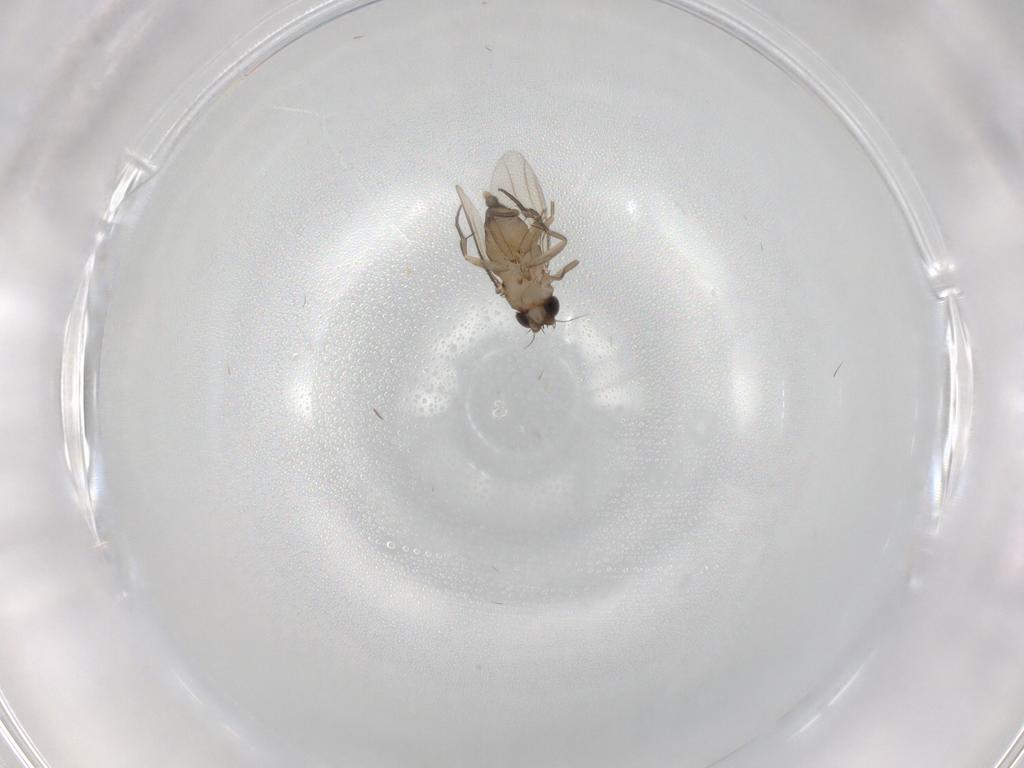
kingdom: Animalia
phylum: Arthropoda
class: Insecta
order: Diptera
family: Phoridae
